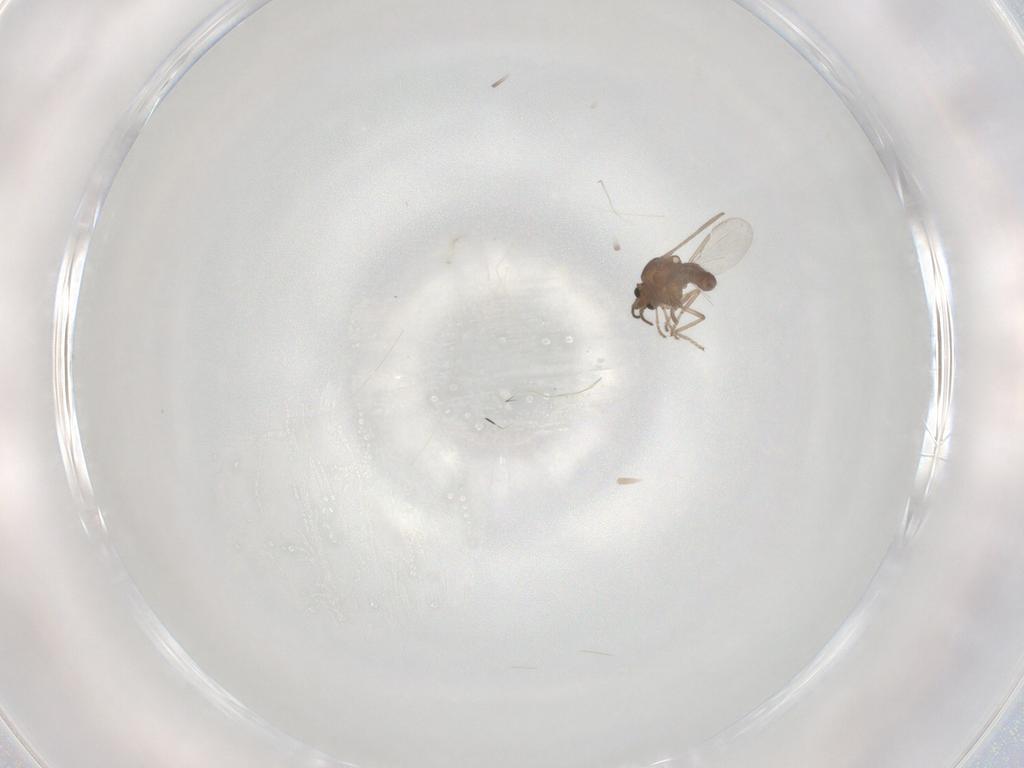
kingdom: Animalia
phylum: Arthropoda
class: Insecta
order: Diptera
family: Ceratopogonidae
